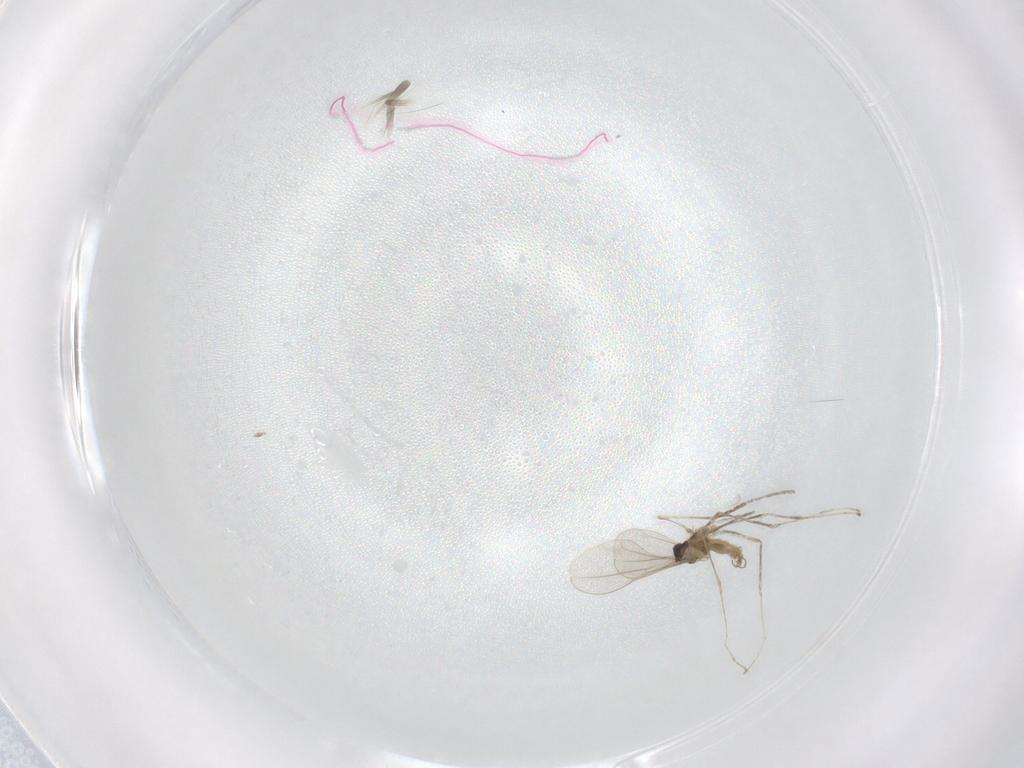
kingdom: Animalia
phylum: Arthropoda
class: Insecta
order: Diptera
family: Cecidomyiidae
